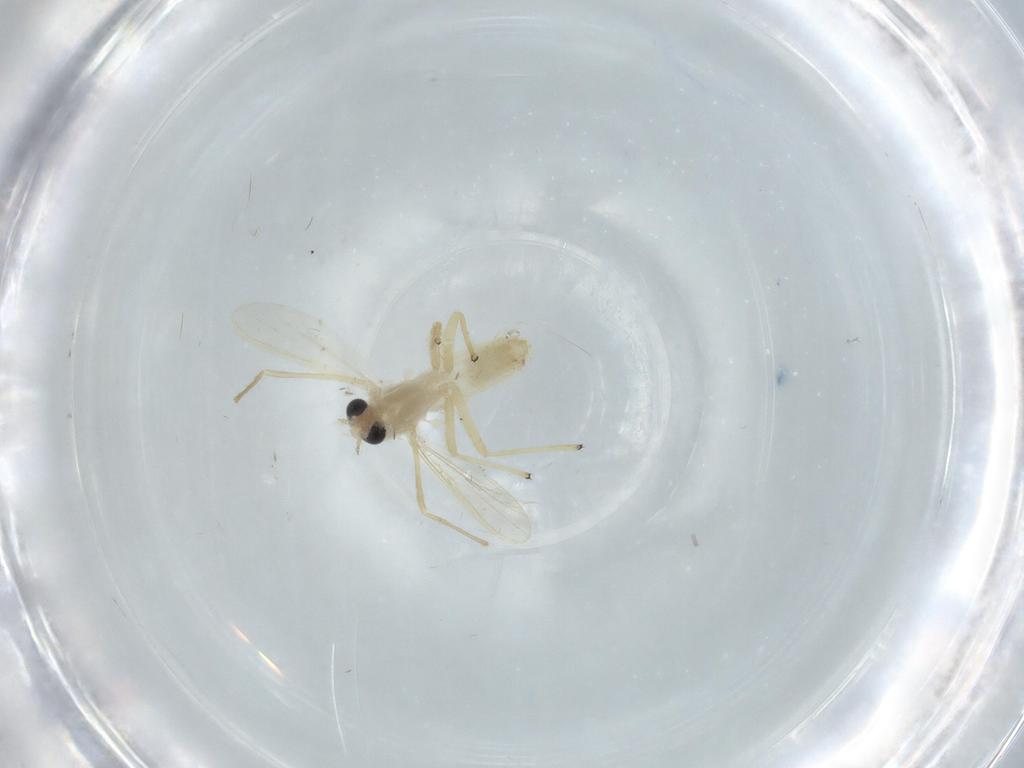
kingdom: Animalia
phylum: Arthropoda
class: Insecta
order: Diptera
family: Chironomidae
